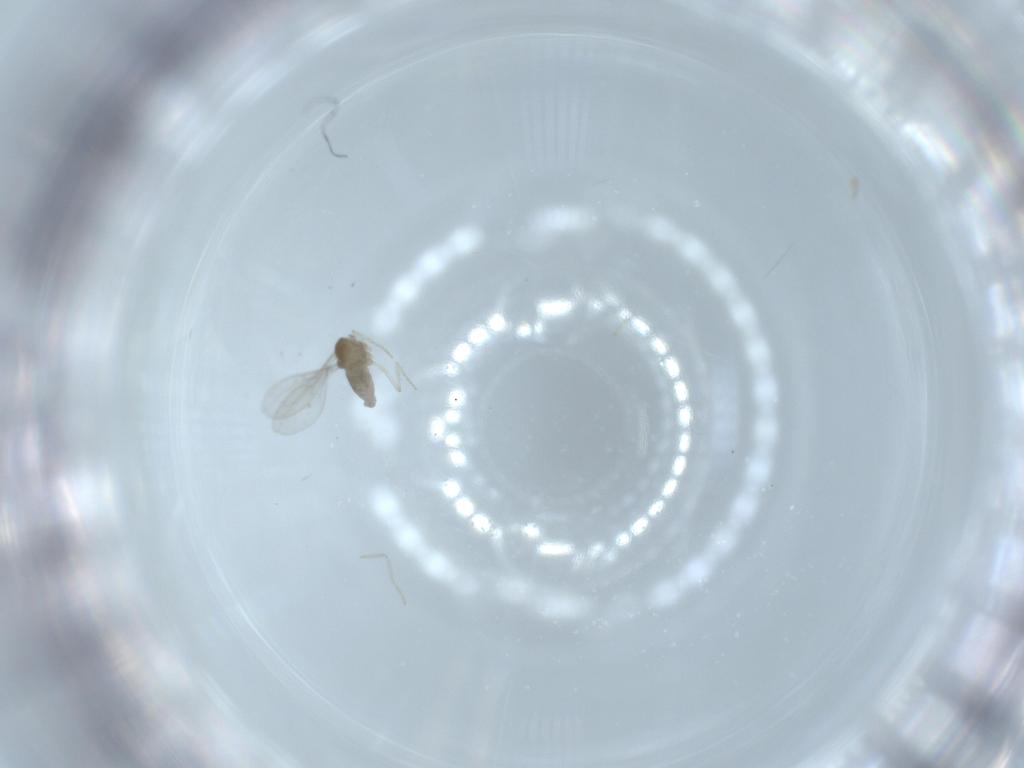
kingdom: Animalia
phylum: Arthropoda
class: Insecta
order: Diptera
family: Cecidomyiidae
